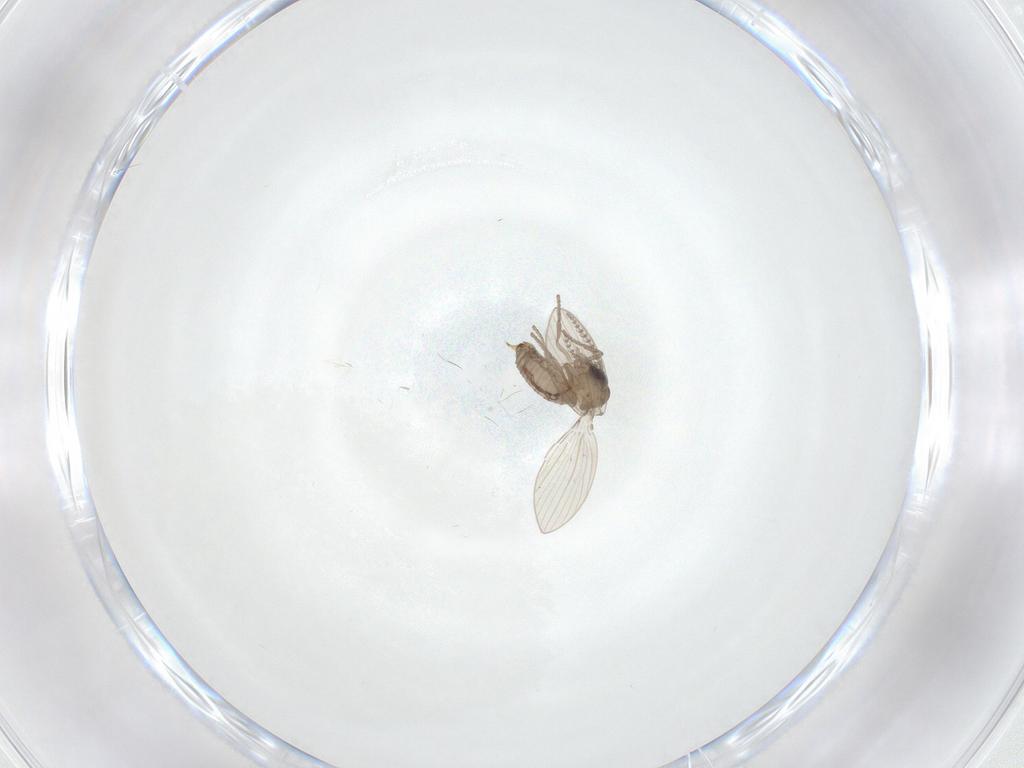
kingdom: Animalia
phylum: Arthropoda
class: Insecta
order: Diptera
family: Psychodidae
